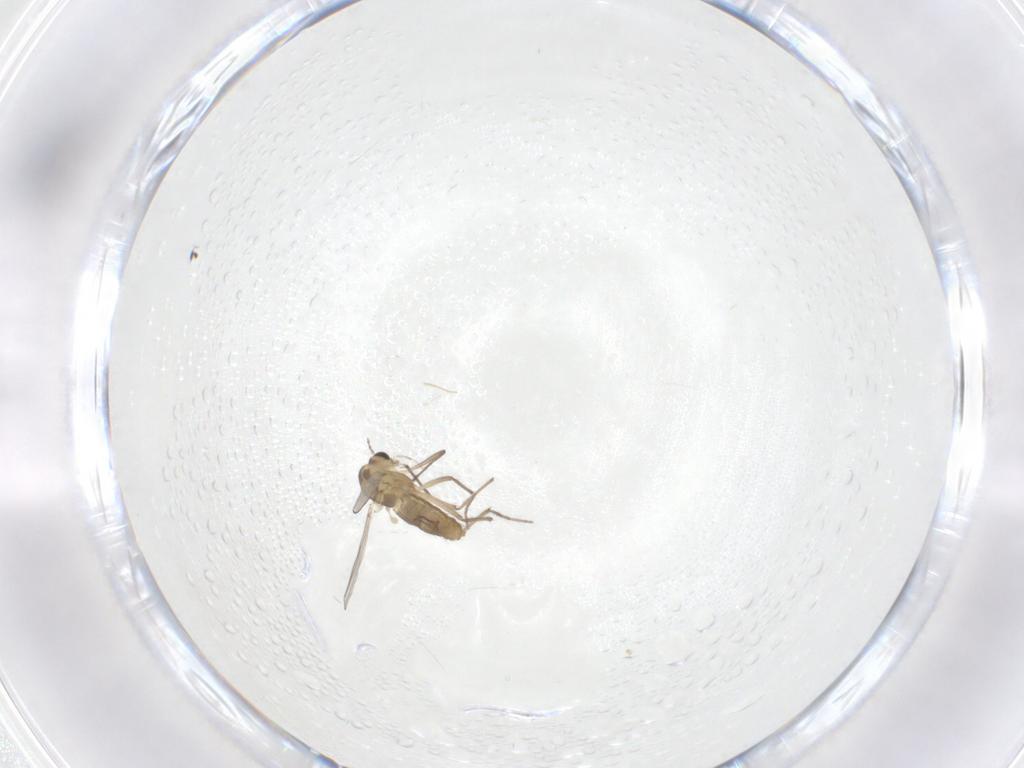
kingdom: Animalia
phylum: Arthropoda
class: Insecta
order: Diptera
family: Chironomidae
